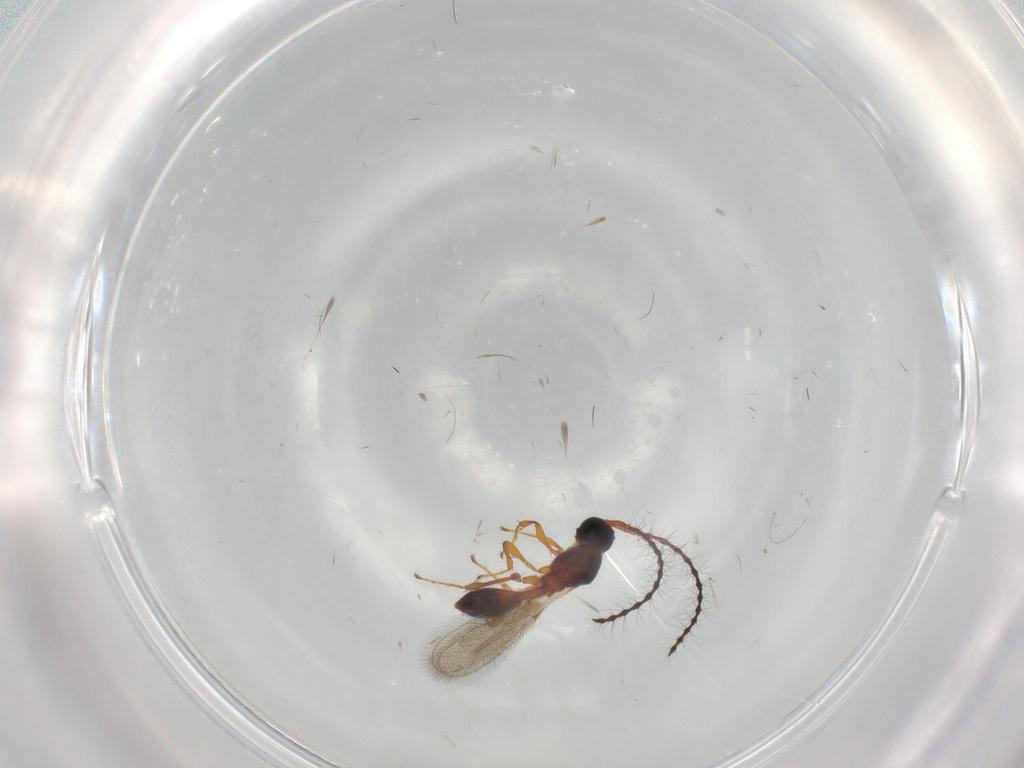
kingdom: Animalia
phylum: Arthropoda
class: Insecta
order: Hymenoptera
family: Diapriidae
